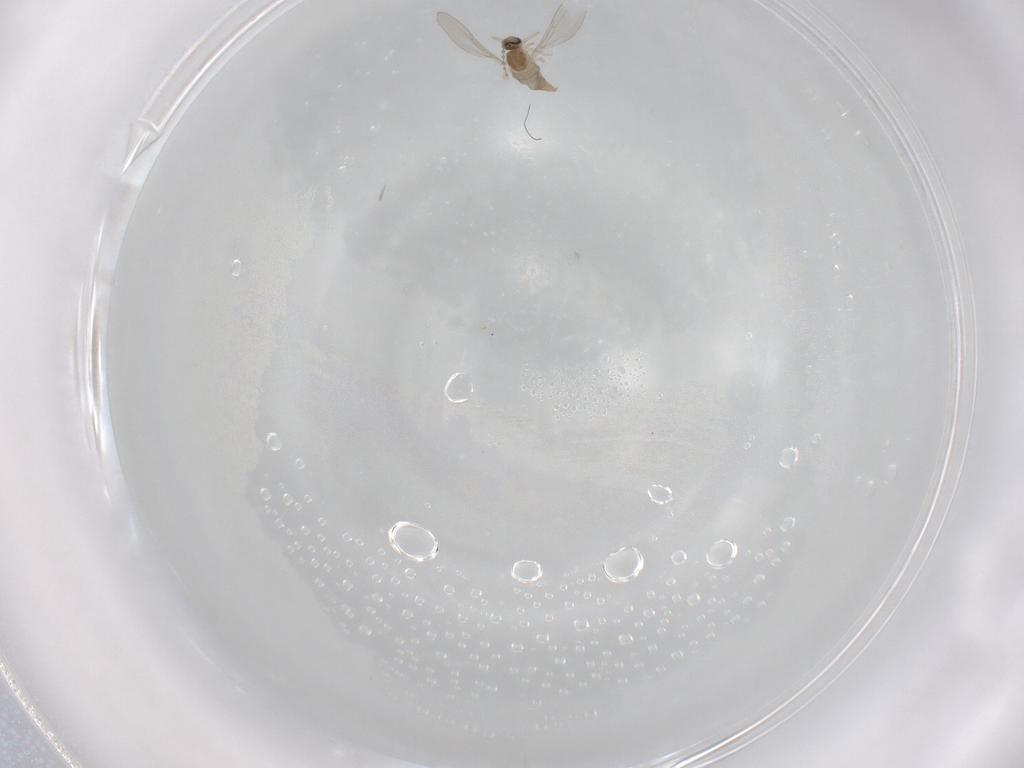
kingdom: Animalia
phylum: Arthropoda
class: Insecta
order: Diptera
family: Cecidomyiidae
